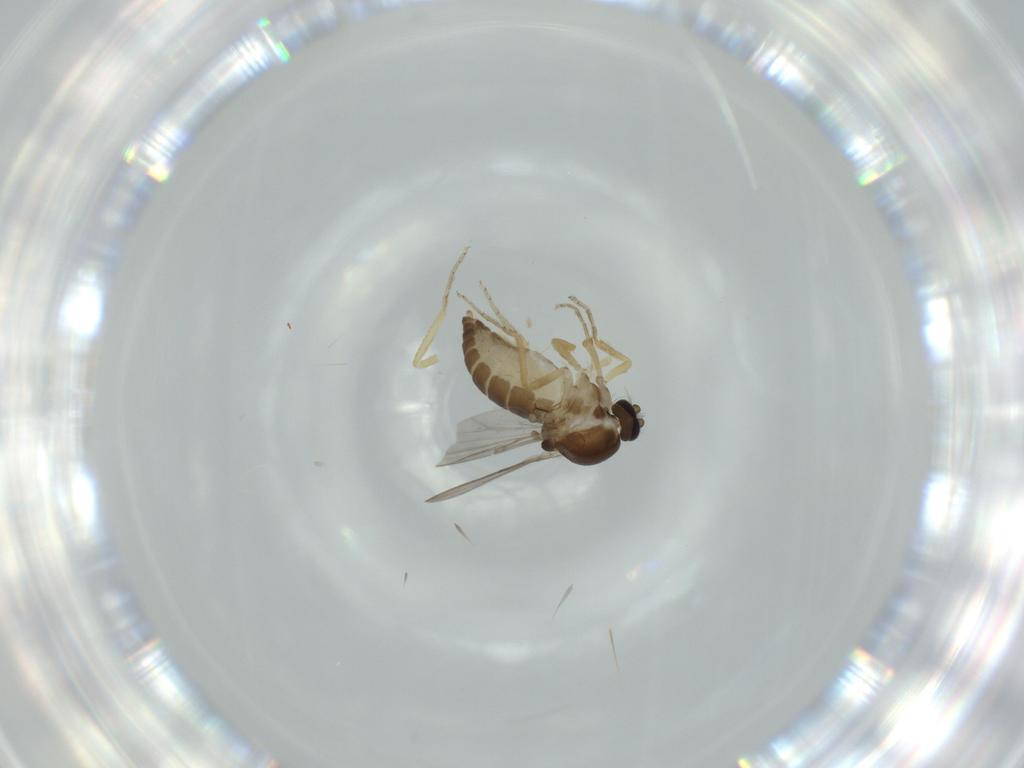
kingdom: Animalia
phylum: Arthropoda
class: Insecta
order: Diptera
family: Ceratopogonidae
